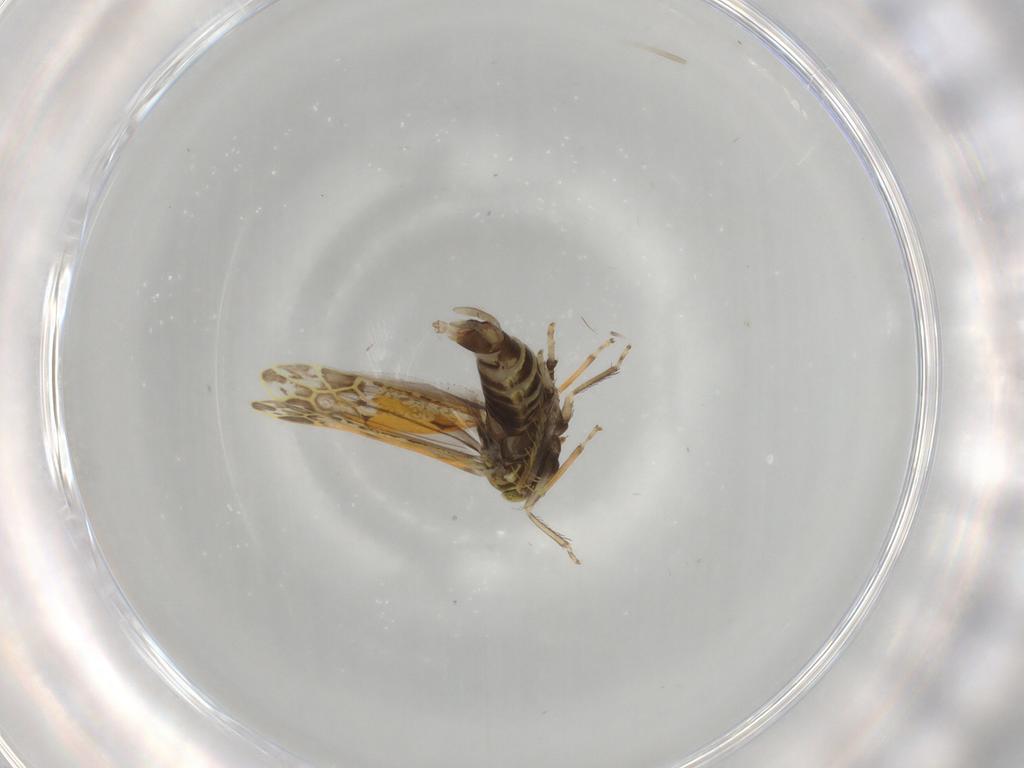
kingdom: Animalia
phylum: Arthropoda
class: Insecta
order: Hemiptera
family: Cicadellidae
